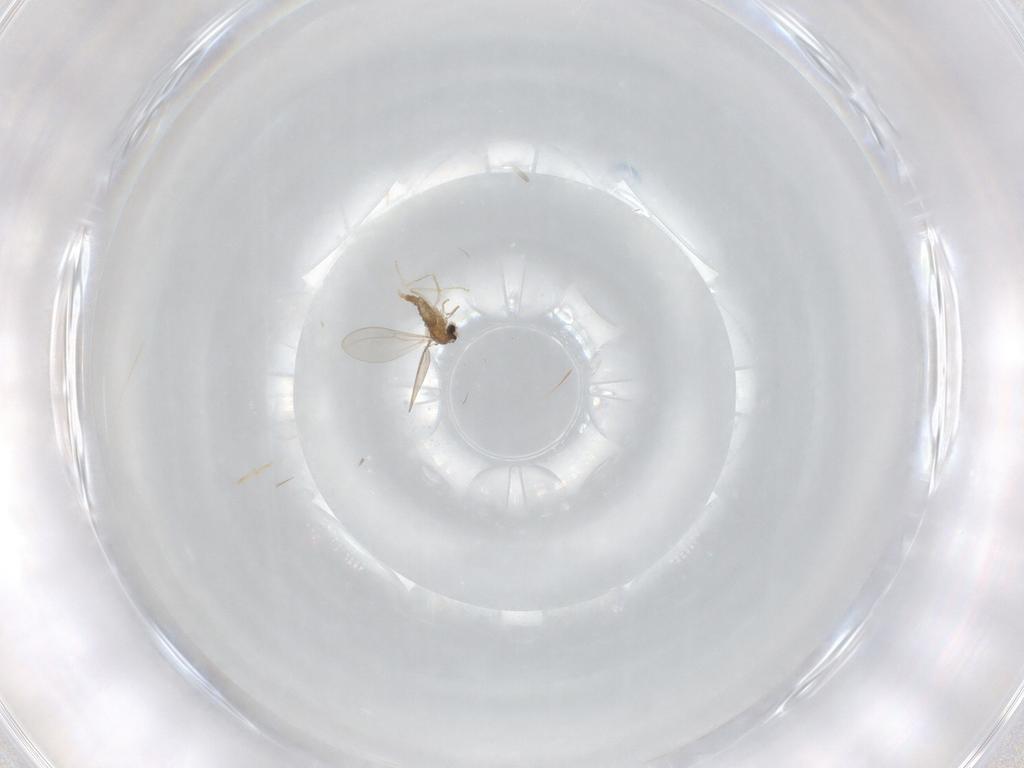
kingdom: Animalia
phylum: Arthropoda
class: Insecta
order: Diptera
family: Cecidomyiidae
